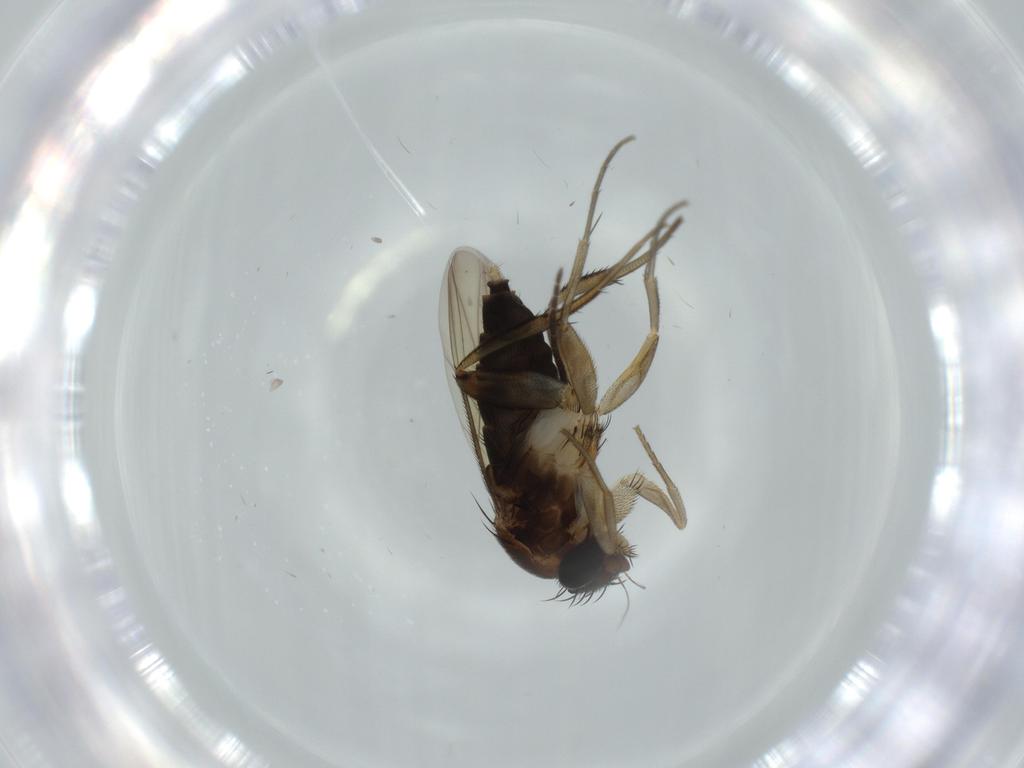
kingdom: Animalia
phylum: Arthropoda
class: Insecta
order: Diptera
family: Phoridae
